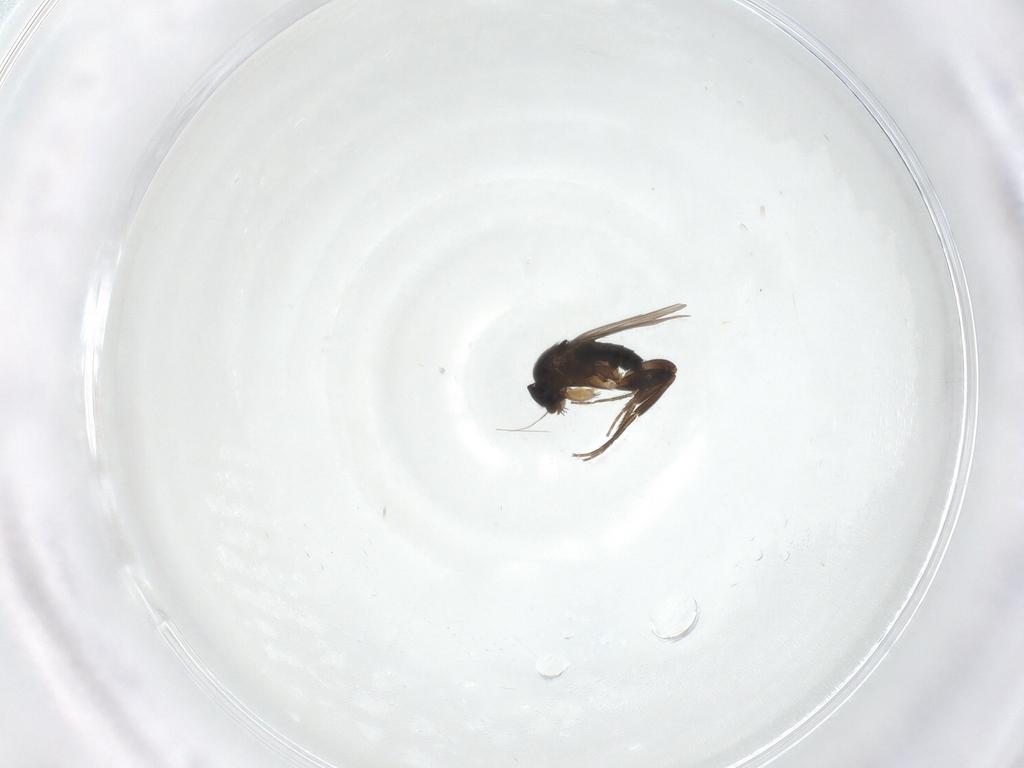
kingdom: Animalia
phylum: Arthropoda
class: Insecta
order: Diptera
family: Phoridae
